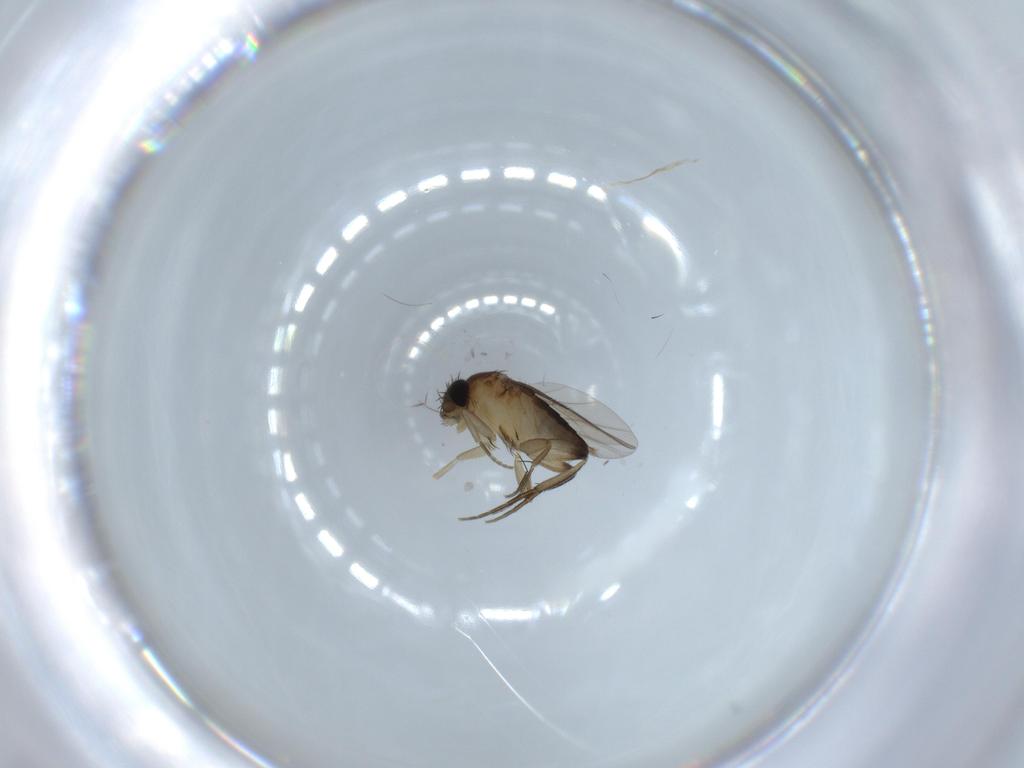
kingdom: Animalia
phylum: Arthropoda
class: Insecta
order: Diptera
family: Phoridae
